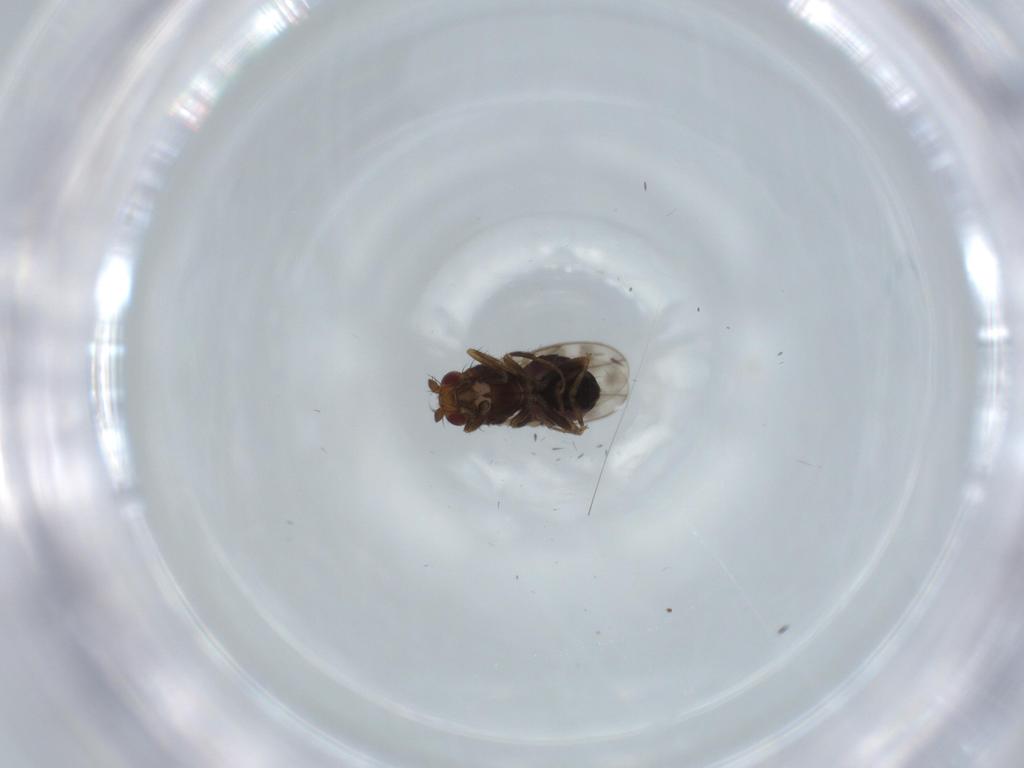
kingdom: Animalia
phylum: Arthropoda
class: Insecta
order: Diptera
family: Sphaeroceridae
